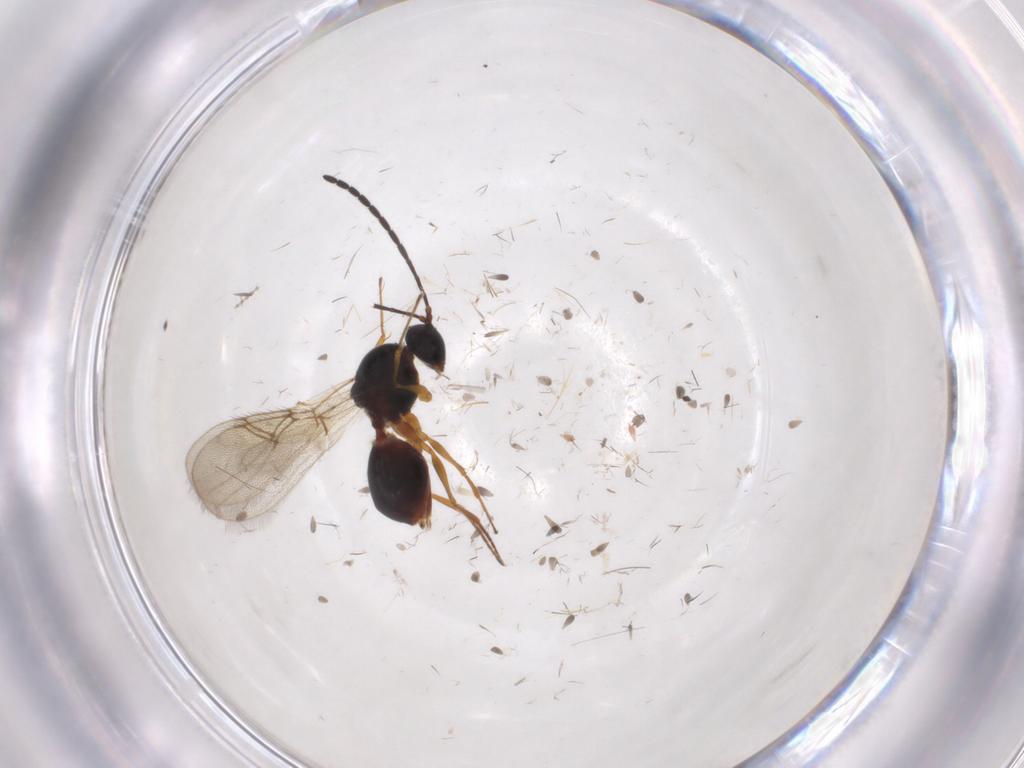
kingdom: Animalia
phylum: Arthropoda
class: Insecta
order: Hymenoptera
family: Figitidae
